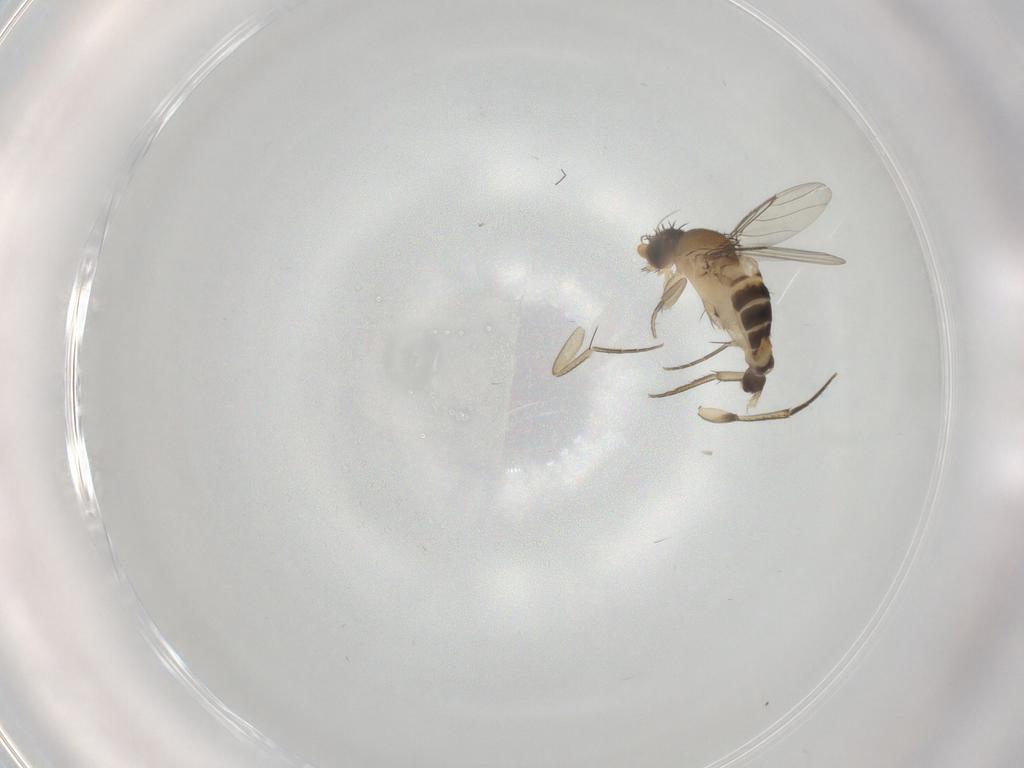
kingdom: Animalia
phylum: Arthropoda
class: Insecta
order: Diptera
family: Phoridae
